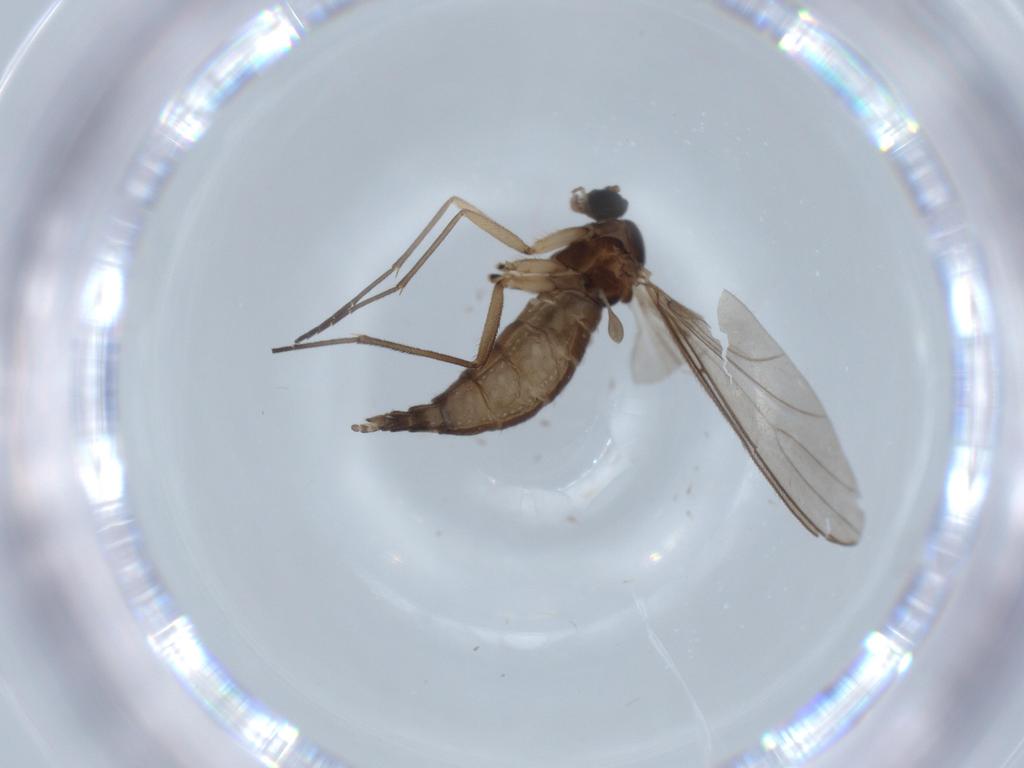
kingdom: Animalia
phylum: Arthropoda
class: Insecta
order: Diptera
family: Sciaridae
